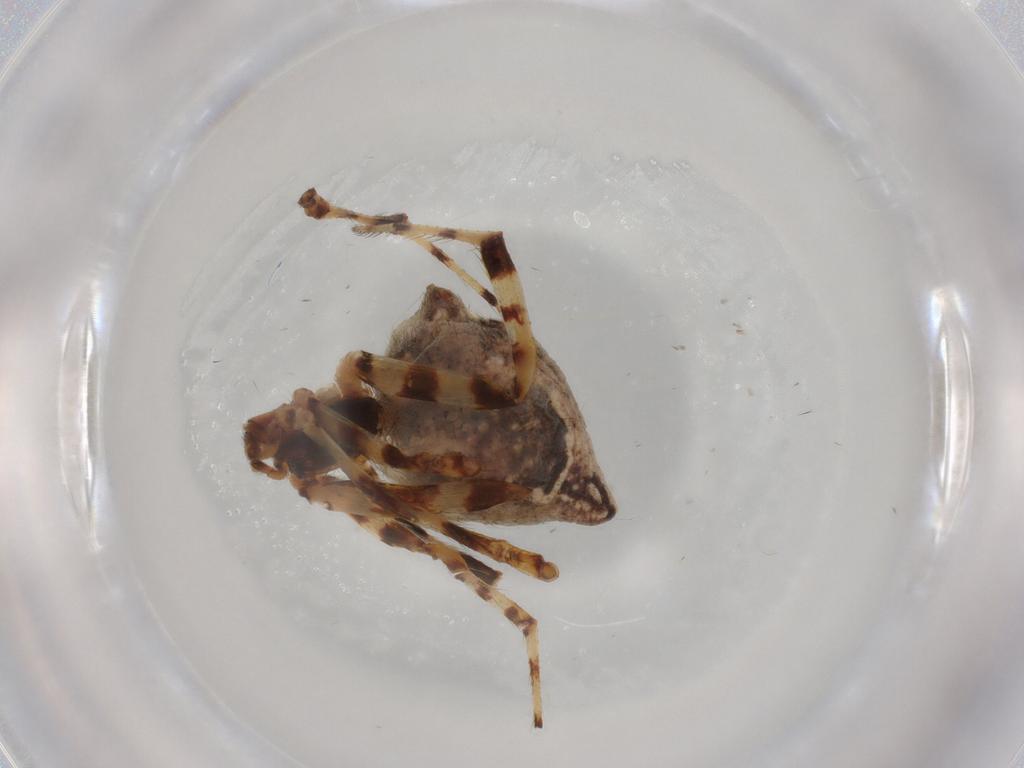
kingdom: Animalia
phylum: Arthropoda
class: Arachnida
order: Araneae
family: Theridiidae
